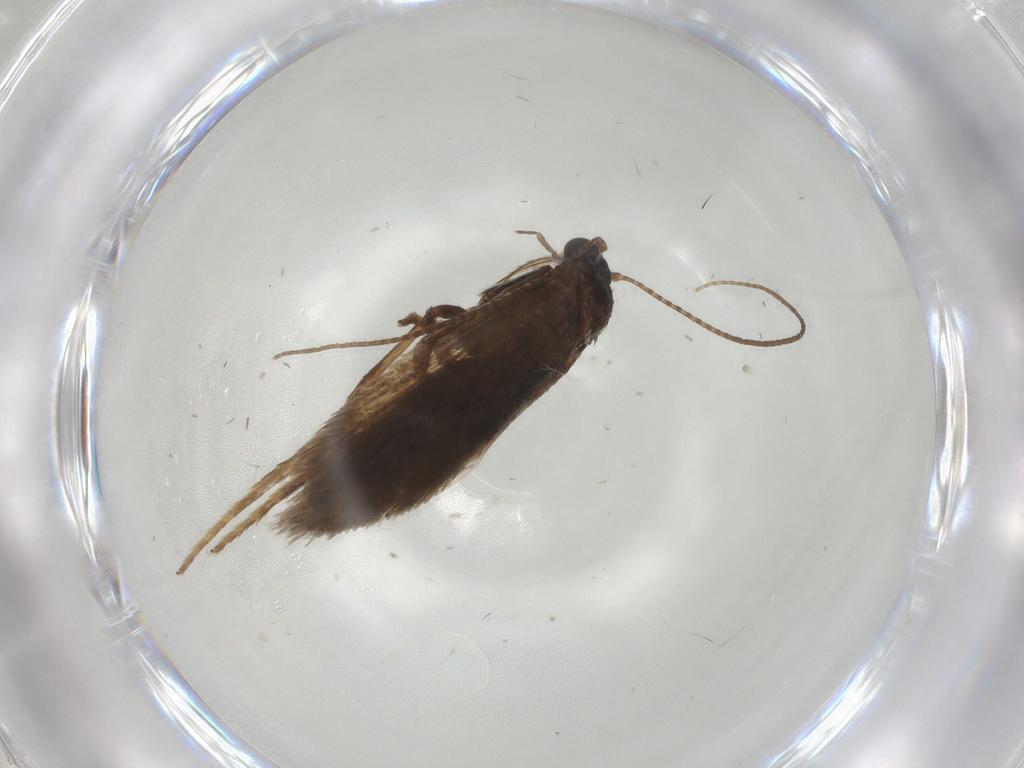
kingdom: Animalia
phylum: Arthropoda
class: Insecta
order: Lepidoptera
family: Adelidae
